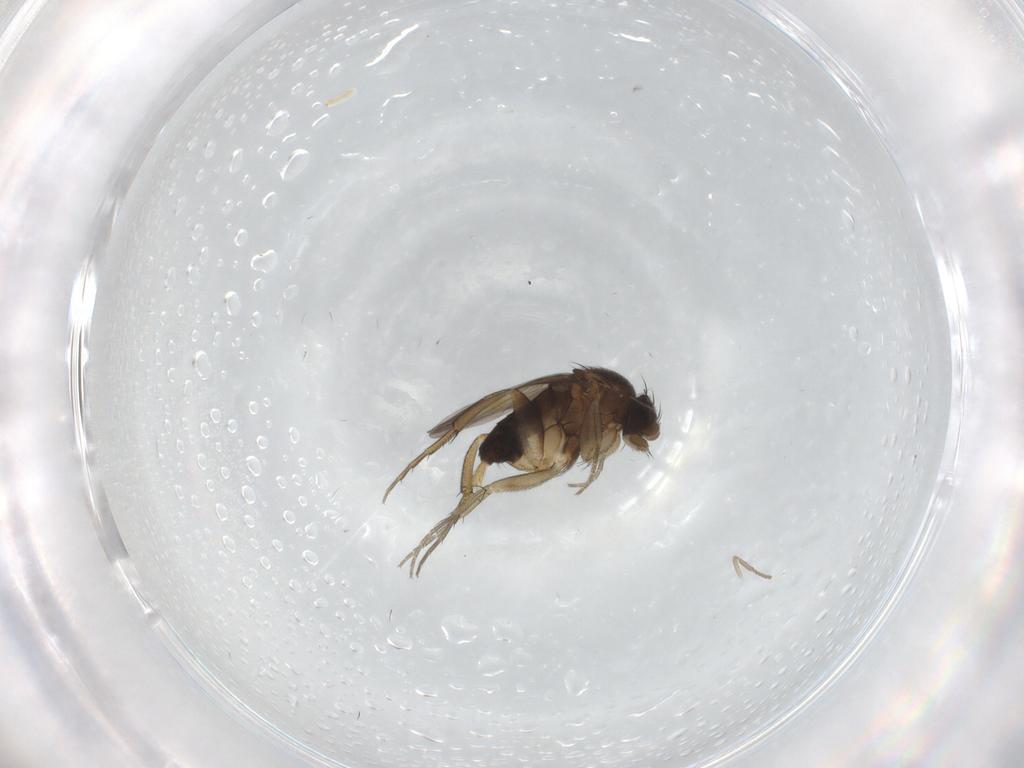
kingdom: Animalia
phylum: Arthropoda
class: Insecta
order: Diptera
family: Phoridae
